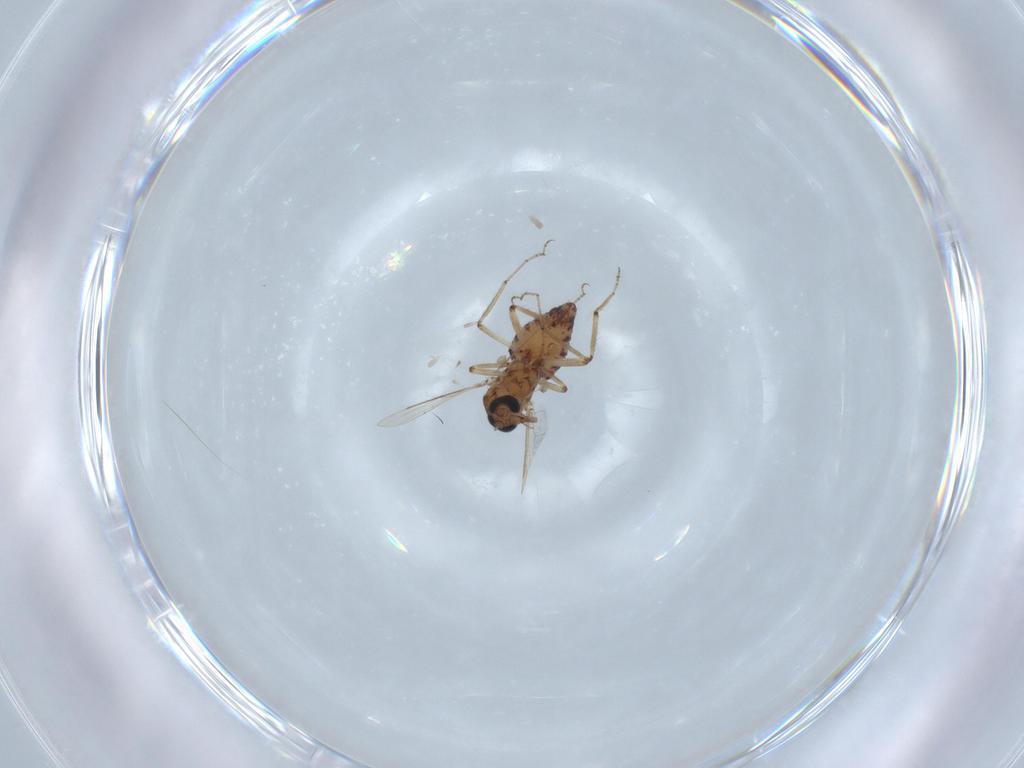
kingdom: Animalia
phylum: Arthropoda
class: Insecta
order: Diptera
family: Ceratopogonidae
